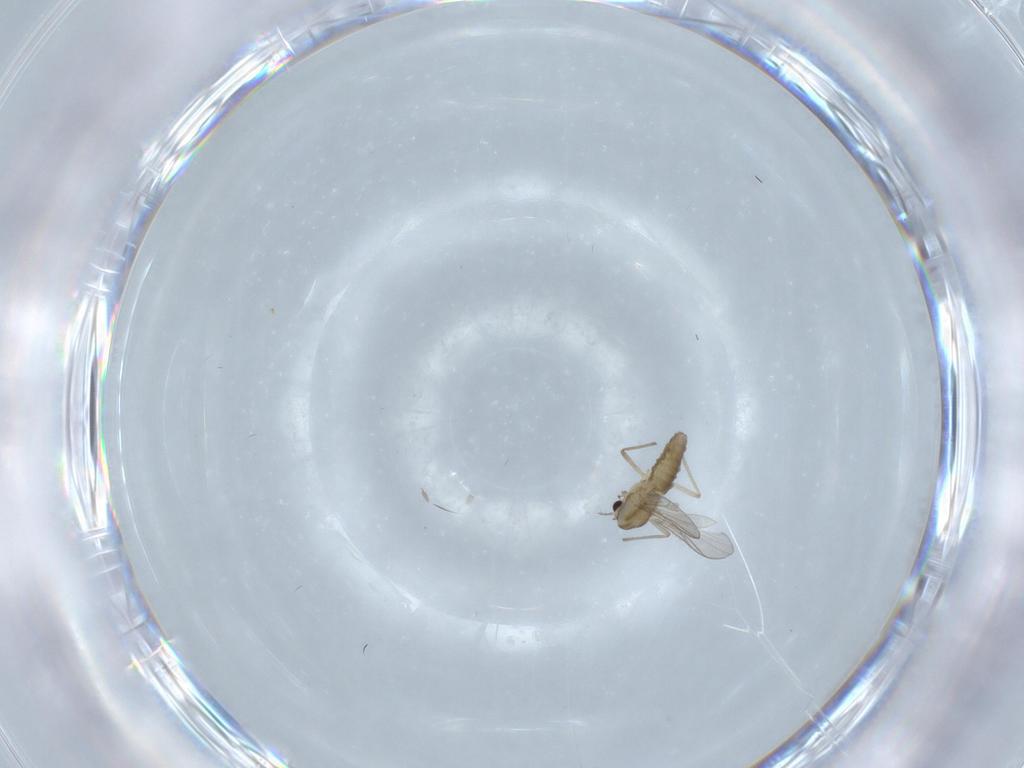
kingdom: Animalia
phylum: Arthropoda
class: Insecta
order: Diptera
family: Chironomidae
